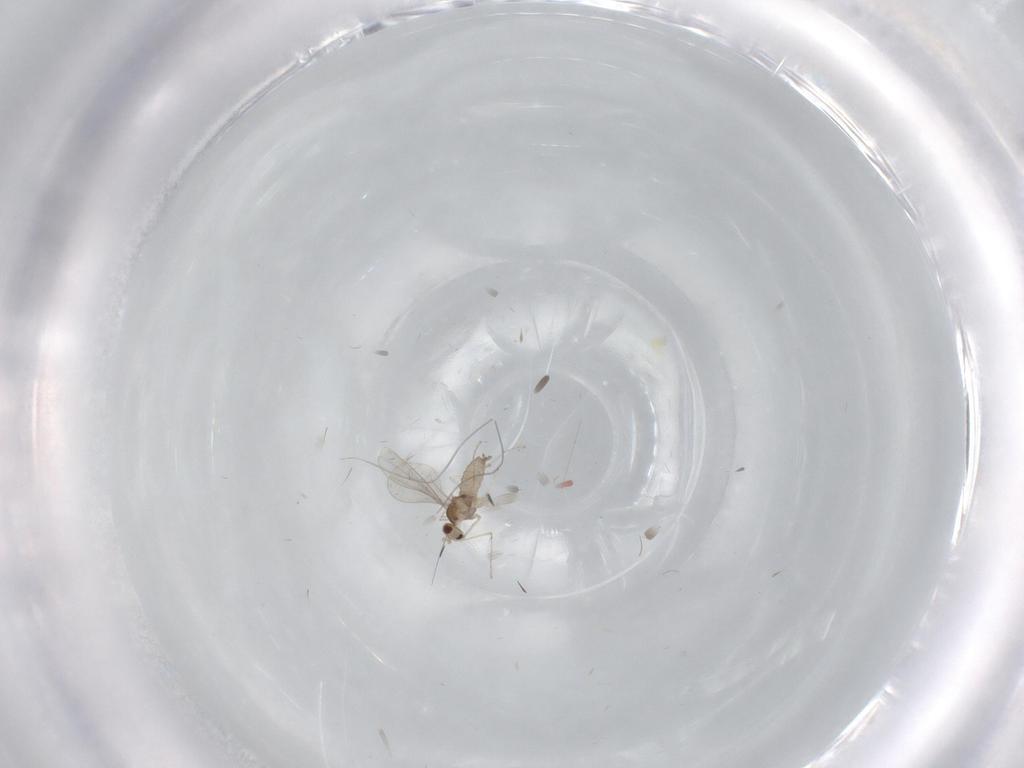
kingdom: Animalia
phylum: Arthropoda
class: Insecta
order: Diptera
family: Cecidomyiidae
